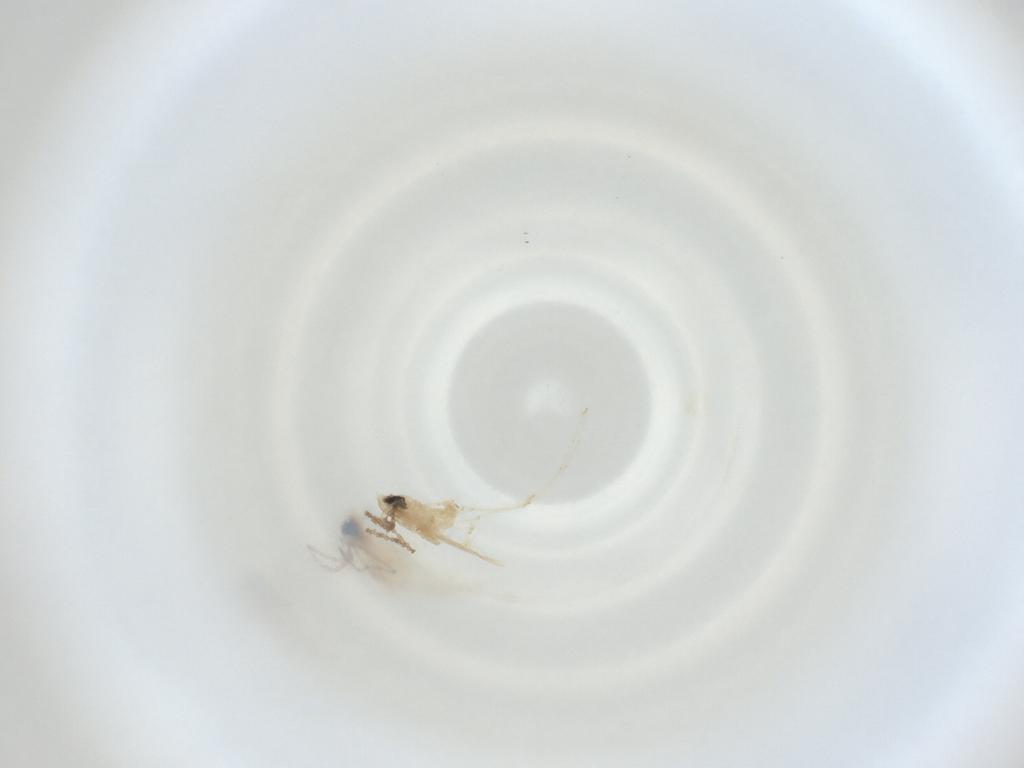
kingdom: Animalia
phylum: Arthropoda
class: Insecta
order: Diptera
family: Cecidomyiidae
